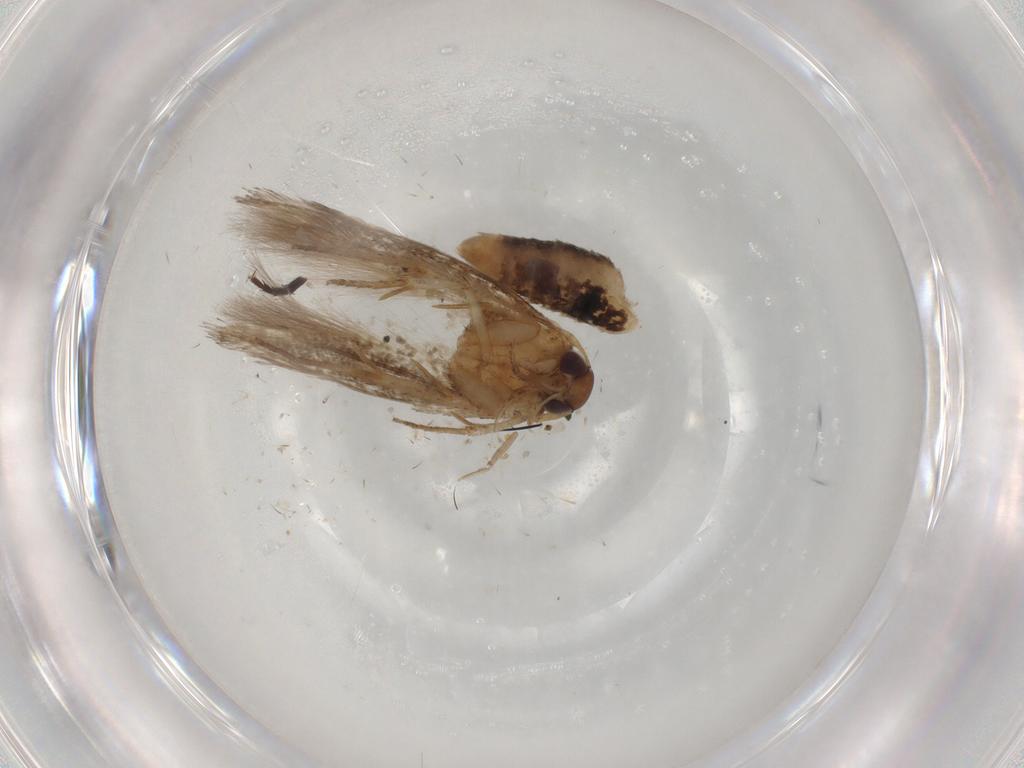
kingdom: Animalia
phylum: Arthropoda
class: Insecta
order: Lepidoptera
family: Cosmopterigidae
